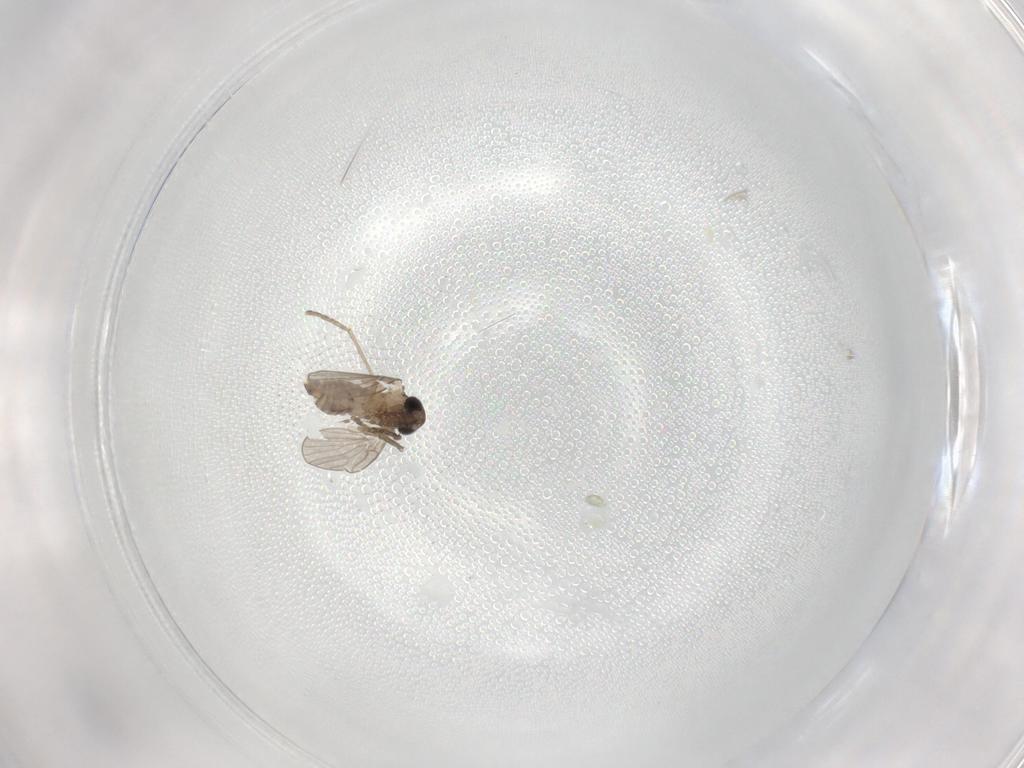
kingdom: Animalia
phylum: Arthropoda
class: Insecta
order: Diptera
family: Cecidomyiidae
